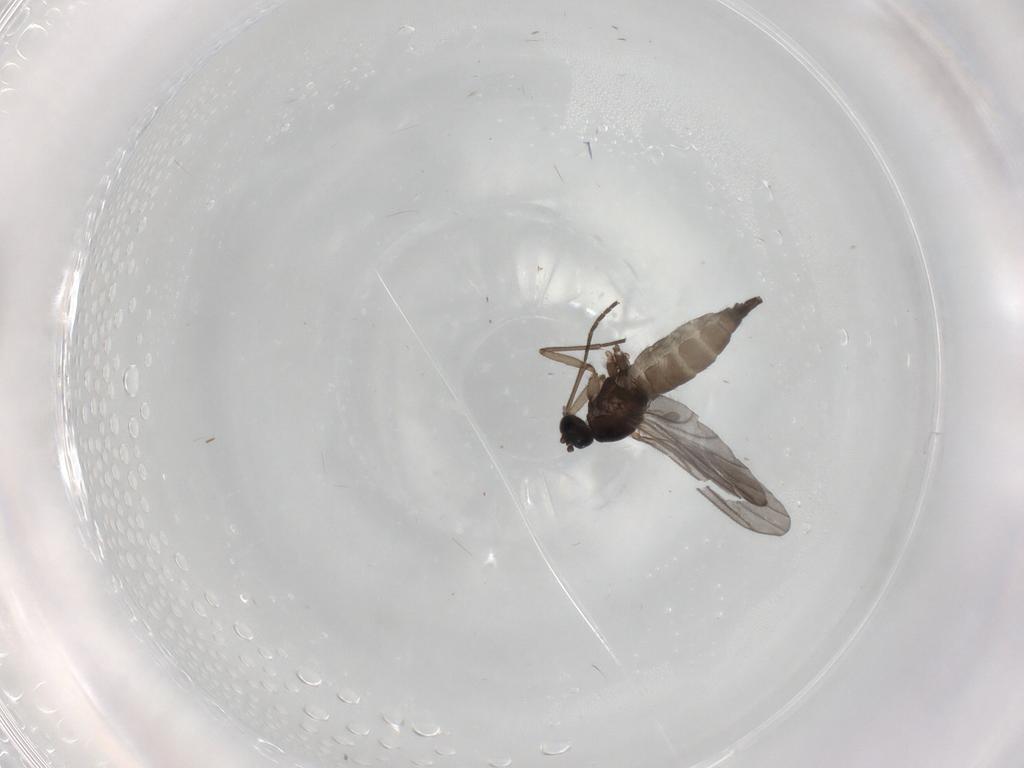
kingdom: Animalia
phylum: Arthropoda
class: Insecta
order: Diptera
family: Sciaridae
